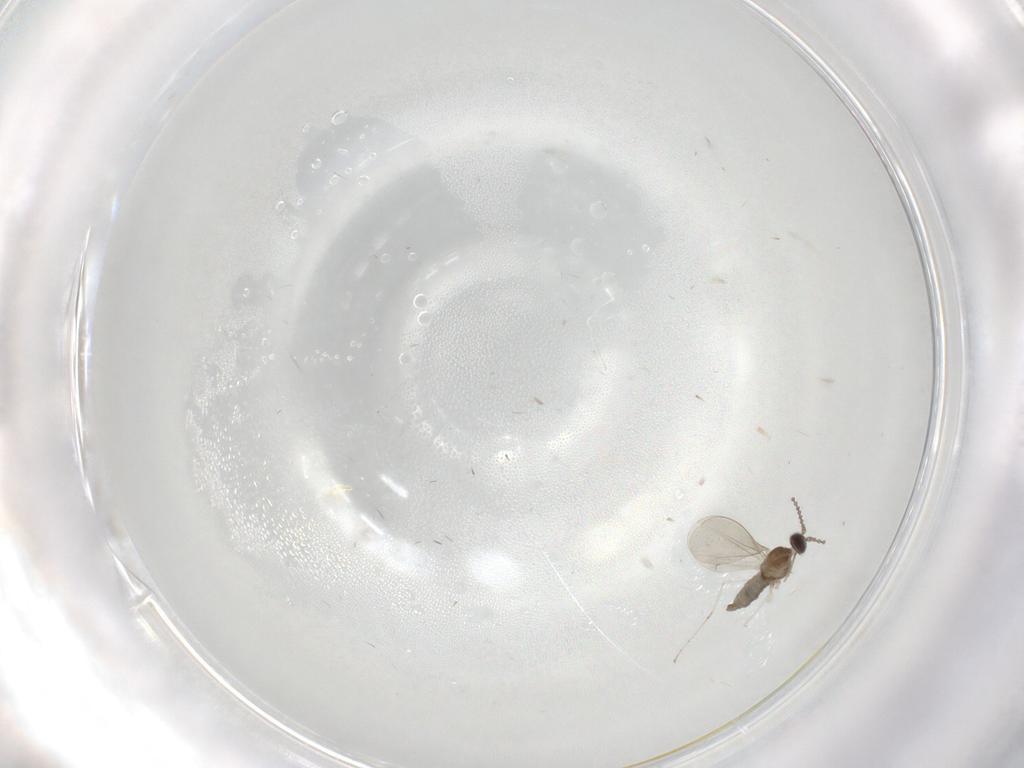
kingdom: Animalia
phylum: Arthropoda
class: Insecta
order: Diptera
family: Cecidomyiidae
